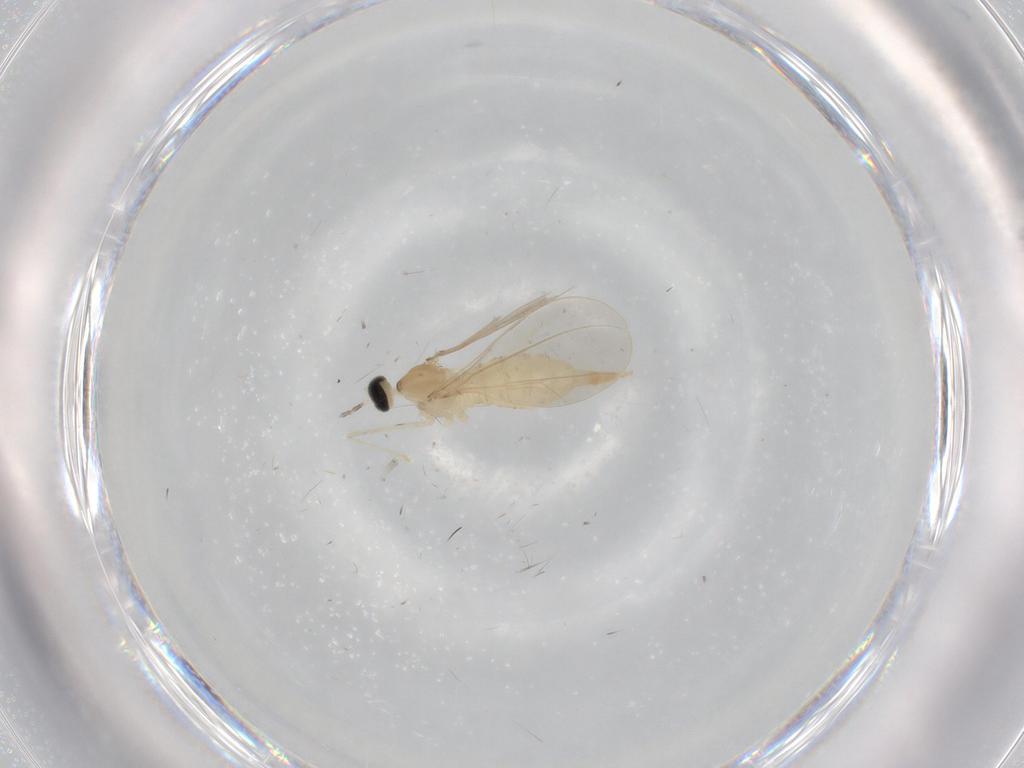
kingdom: Animalia
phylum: Arthropoda
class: Insecta
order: Diptera
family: Cecidomyiidae
